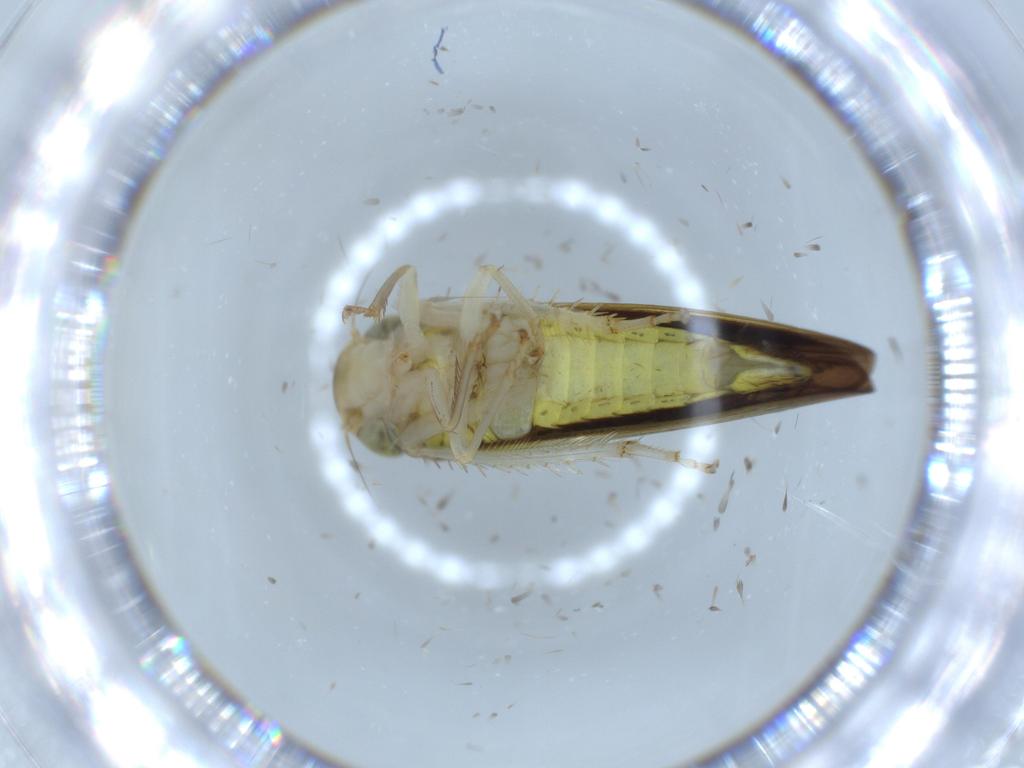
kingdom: Animalia
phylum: Arthropoda
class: Insecta
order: Hemiptera
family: Cicadellidae
